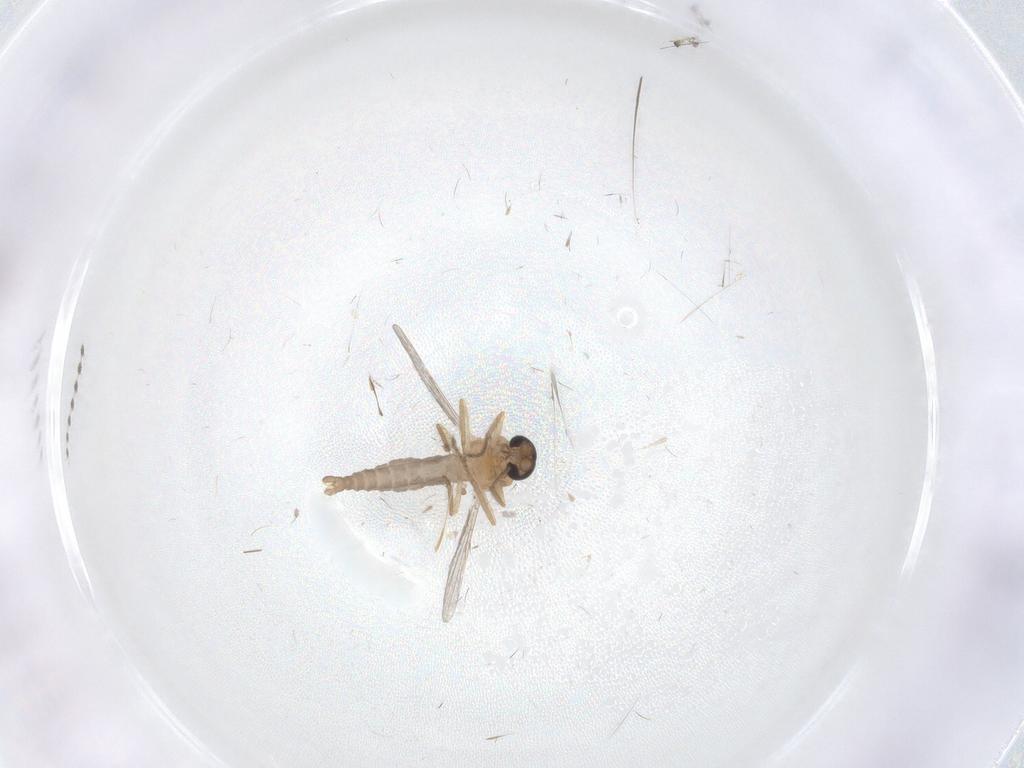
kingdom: Animalia
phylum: Arthropoda
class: Insecta
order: Diptera
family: Ceratopogonidae
